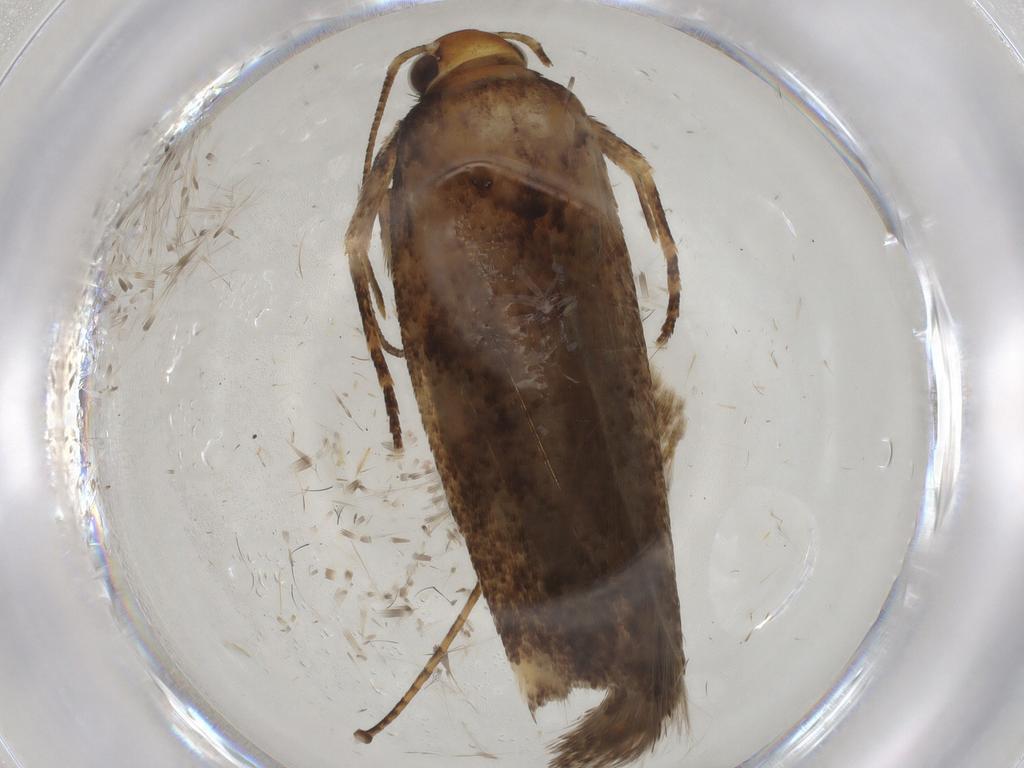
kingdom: Animalia
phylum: Arthropoda
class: Insecta
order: Lepidoptera
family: Gelechiidae
